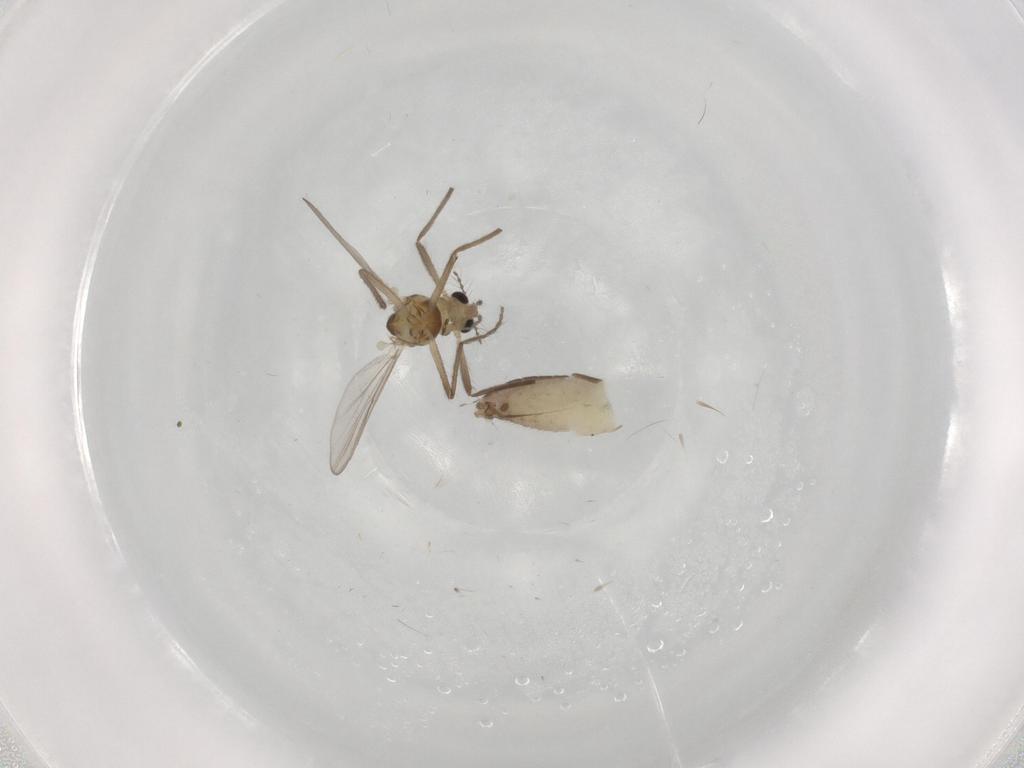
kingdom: Animalia
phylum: Arthropoda
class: Insecta
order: Diptera
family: Chironomidae
